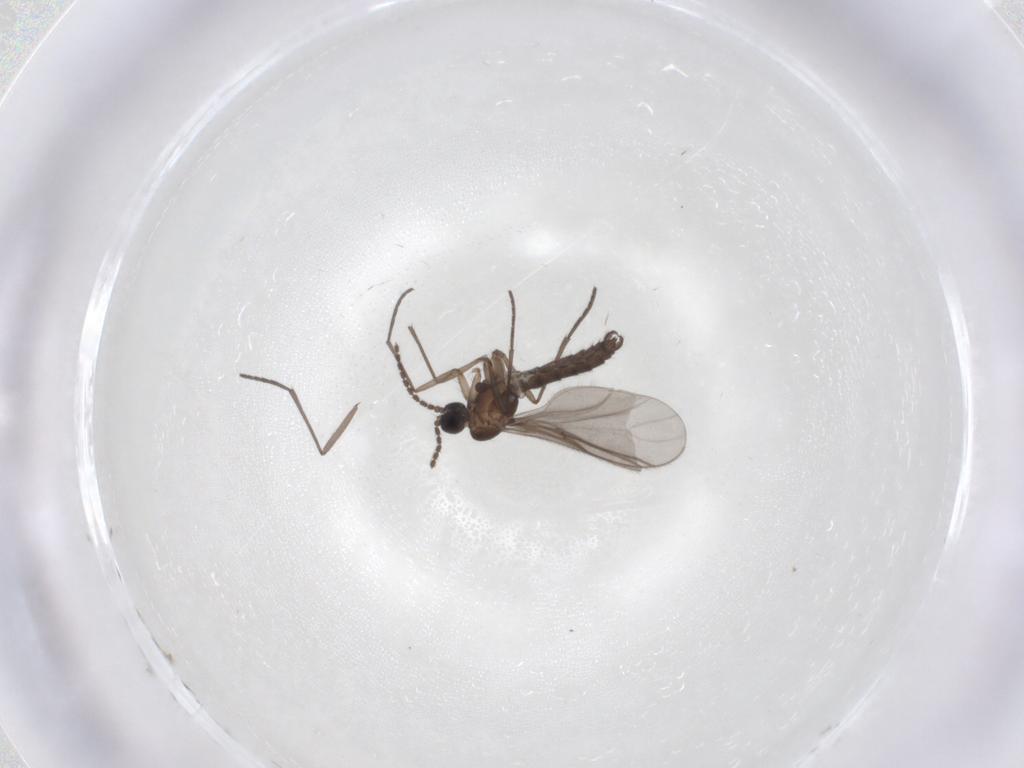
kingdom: Animalia
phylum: Arthropoda
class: Insecta
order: Diptera
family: Sciaridae
